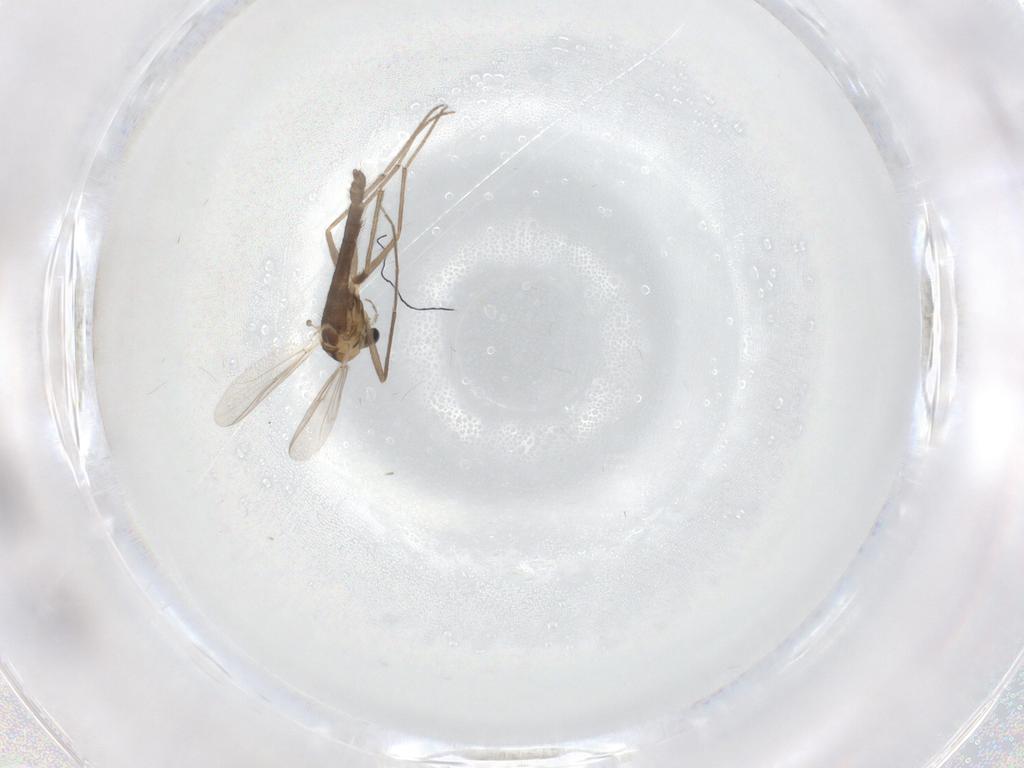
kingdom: Animalia
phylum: Arthropoda
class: Insecta
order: Diptera
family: Chironomidae
